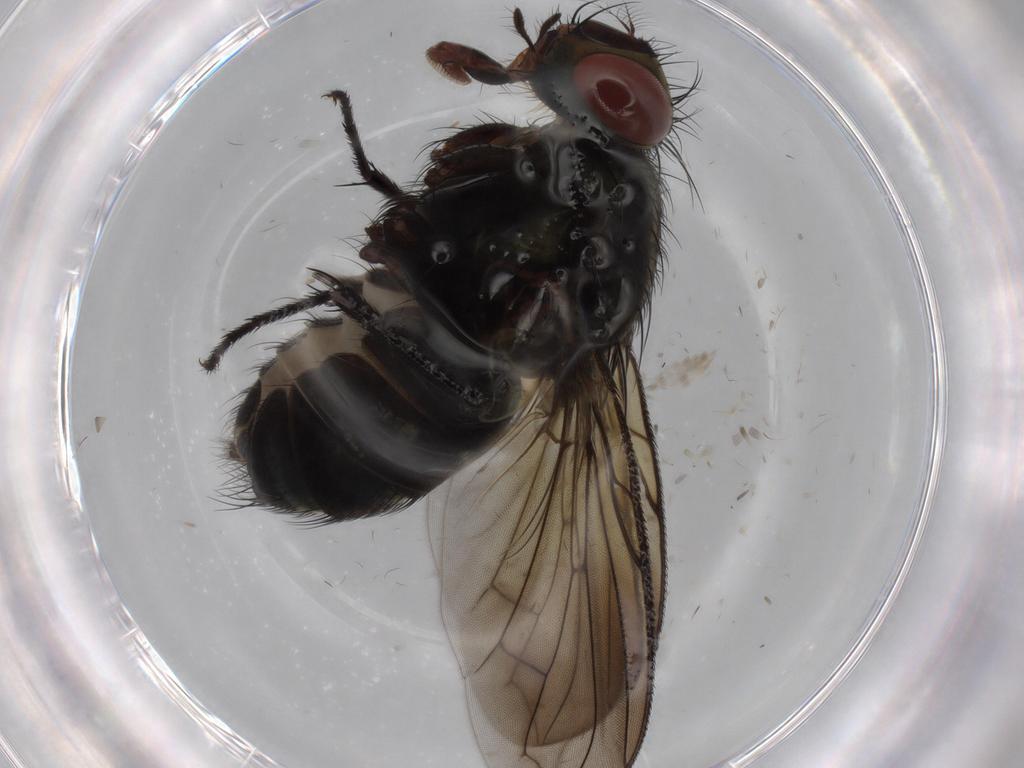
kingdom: Animalia
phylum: Arthropoda
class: Insecta
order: Diptera
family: Sarcophagidae
